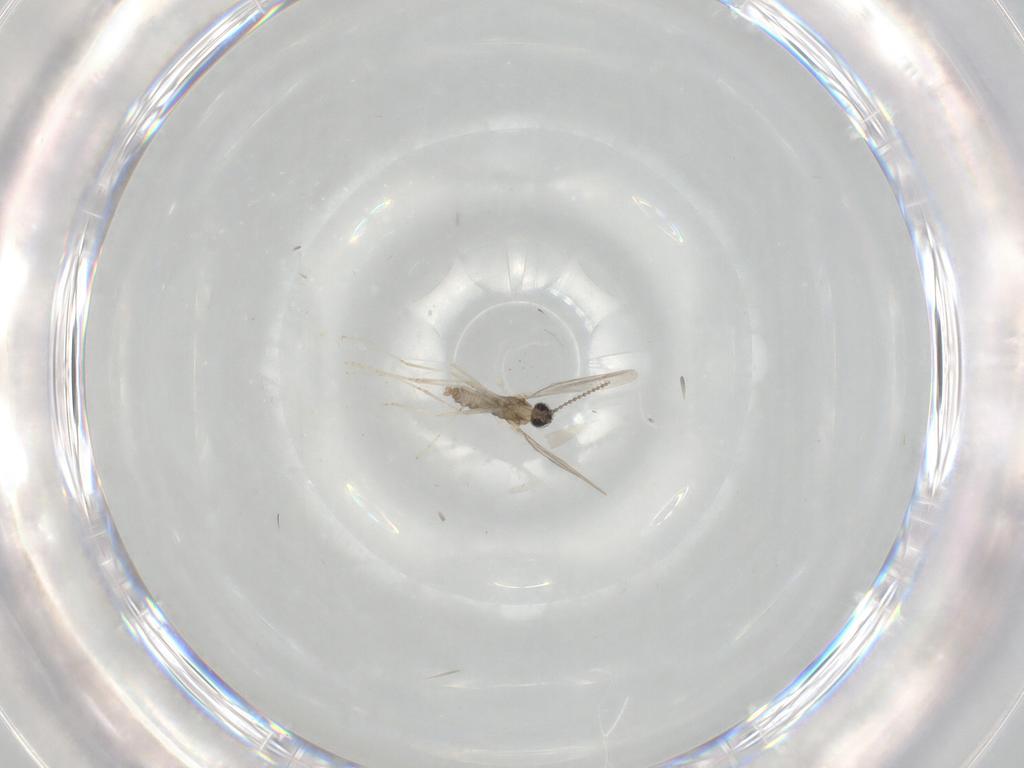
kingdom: Animalia
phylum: Arthropoda
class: Insecta
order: Diptera
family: Cecidomyiidae
